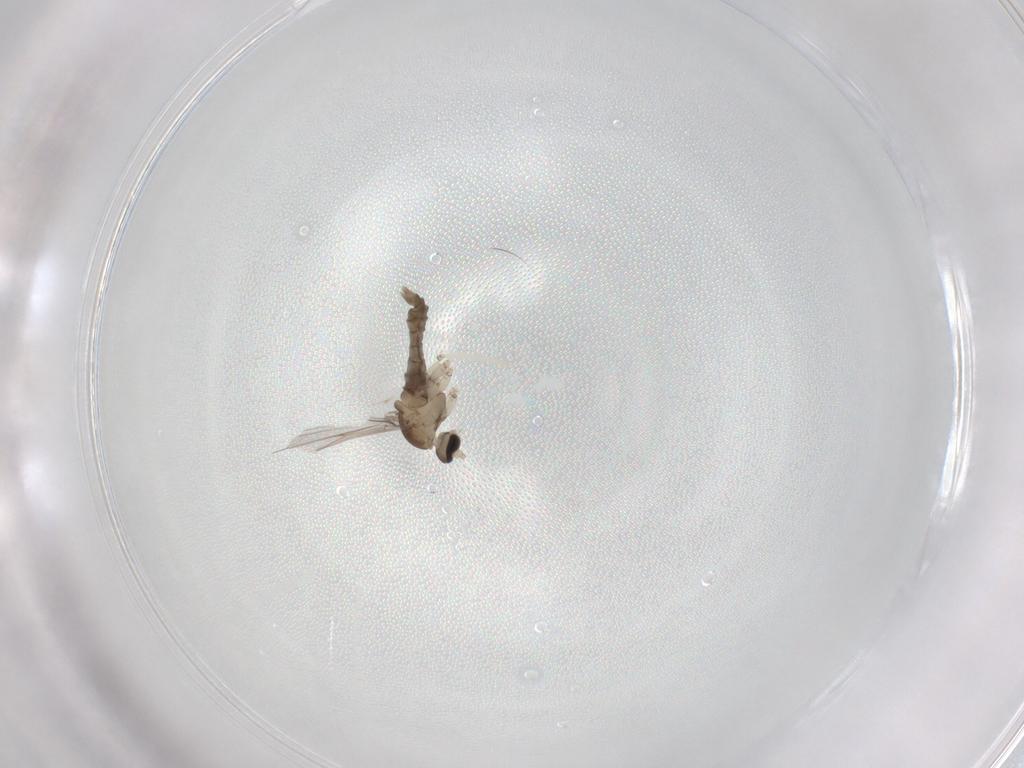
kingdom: Animalia
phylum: Arthropoda
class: Insecta
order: Diptera
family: Cecidomyiidae
